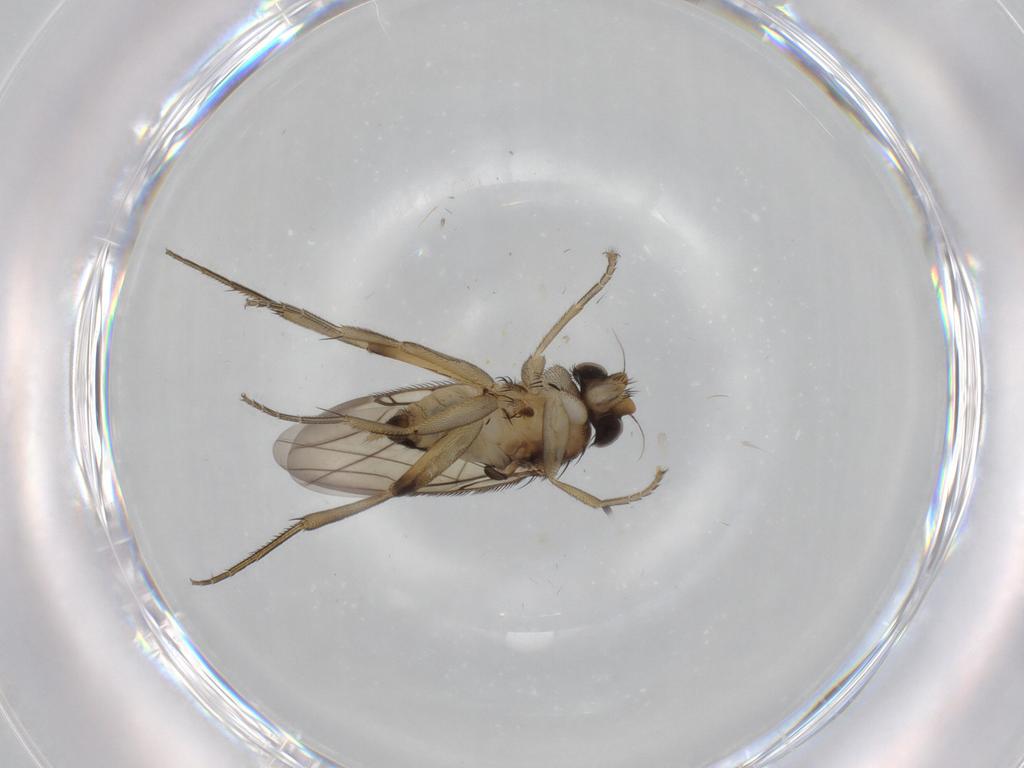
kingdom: Animalia
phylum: Arthropoda
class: Insecta
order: Diptera
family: Phoridae
